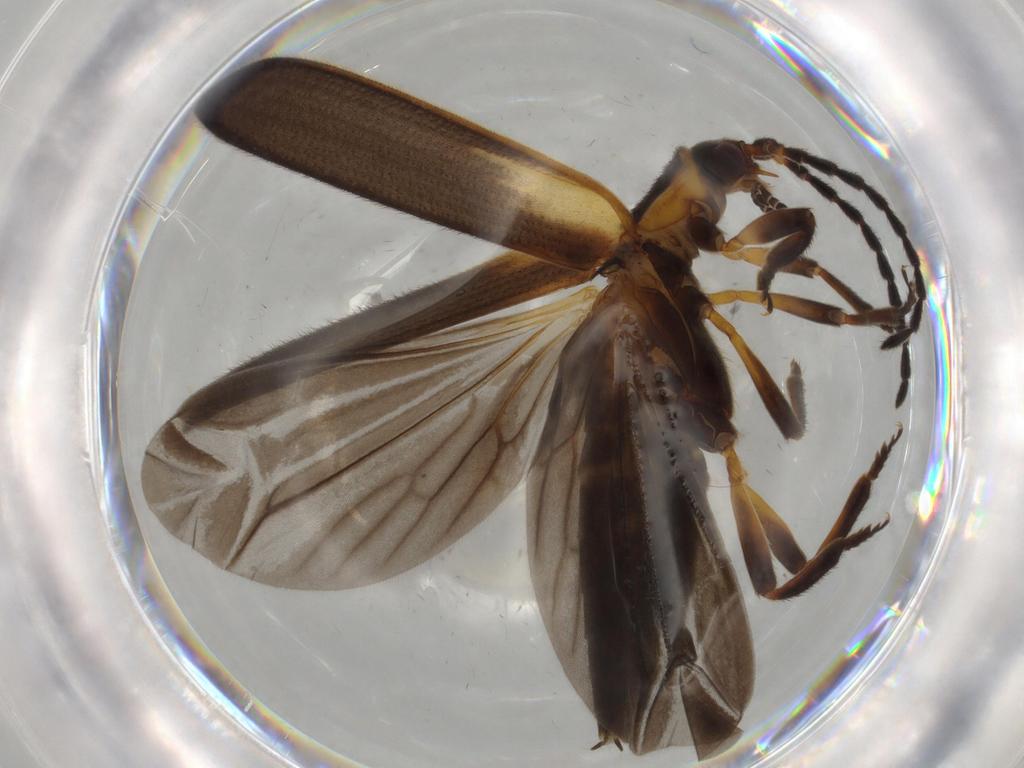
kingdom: Animalia
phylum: Arthropoda
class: Insecta
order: Coleoptera
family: Lycidae
